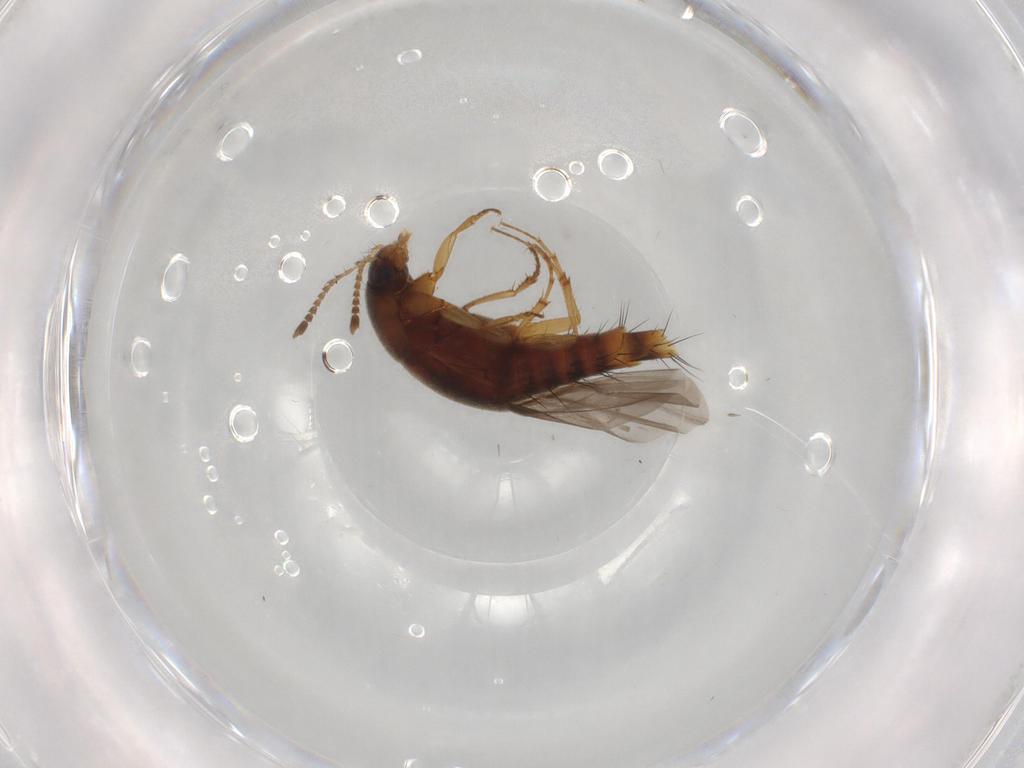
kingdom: Animalia
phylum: Arthropoda
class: Insecta
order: Coleoptera
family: Staphylinidae
